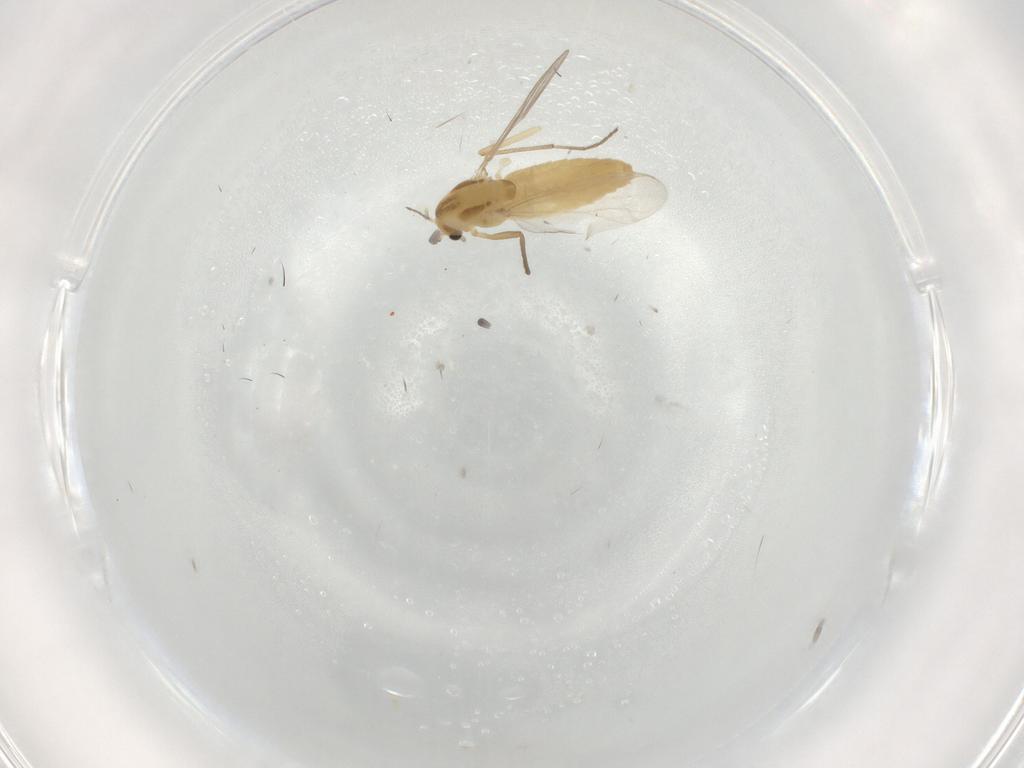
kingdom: Animalia
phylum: Arthropoda
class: Insecta
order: Diptera
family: Chironomidae
